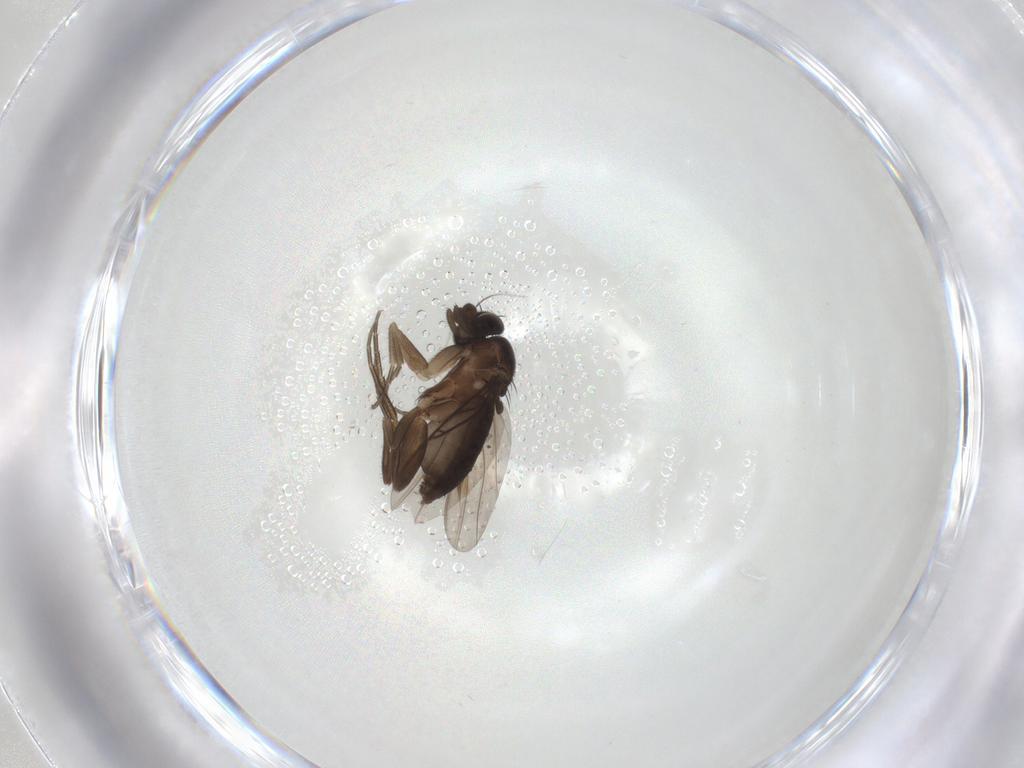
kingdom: Animalia
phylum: Arthropoda
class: Insecta
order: Diptera
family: Phoridae
